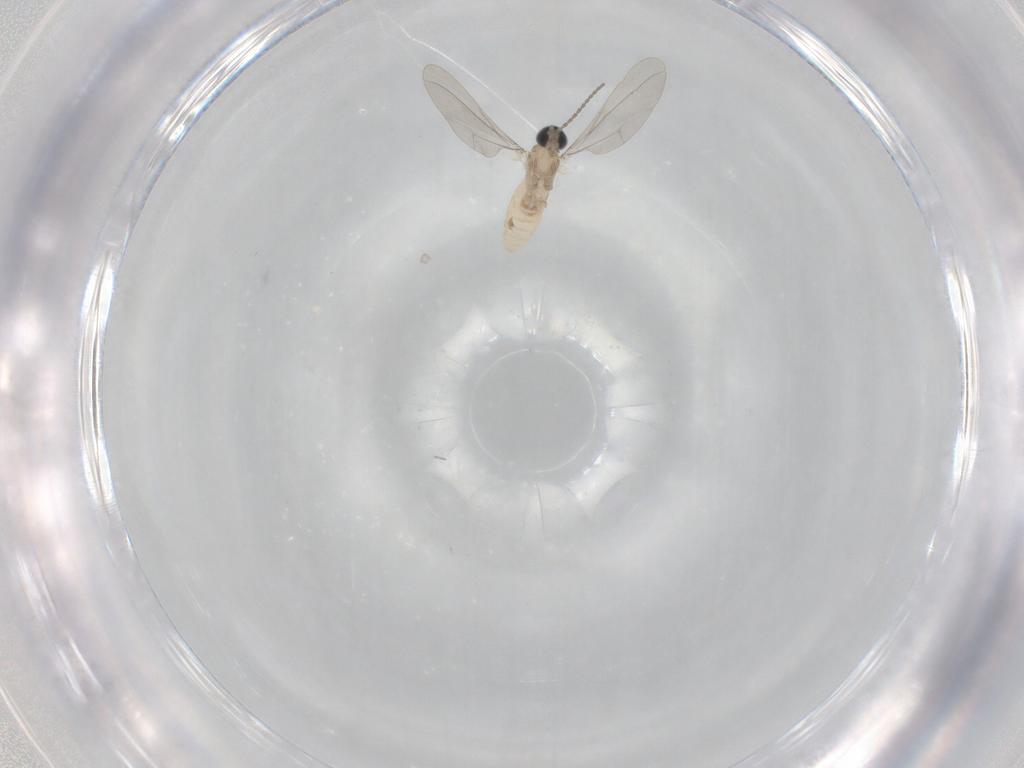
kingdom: Animalia
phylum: Arthropoda
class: Insecta
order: Diptera
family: Cecidomyiidae
